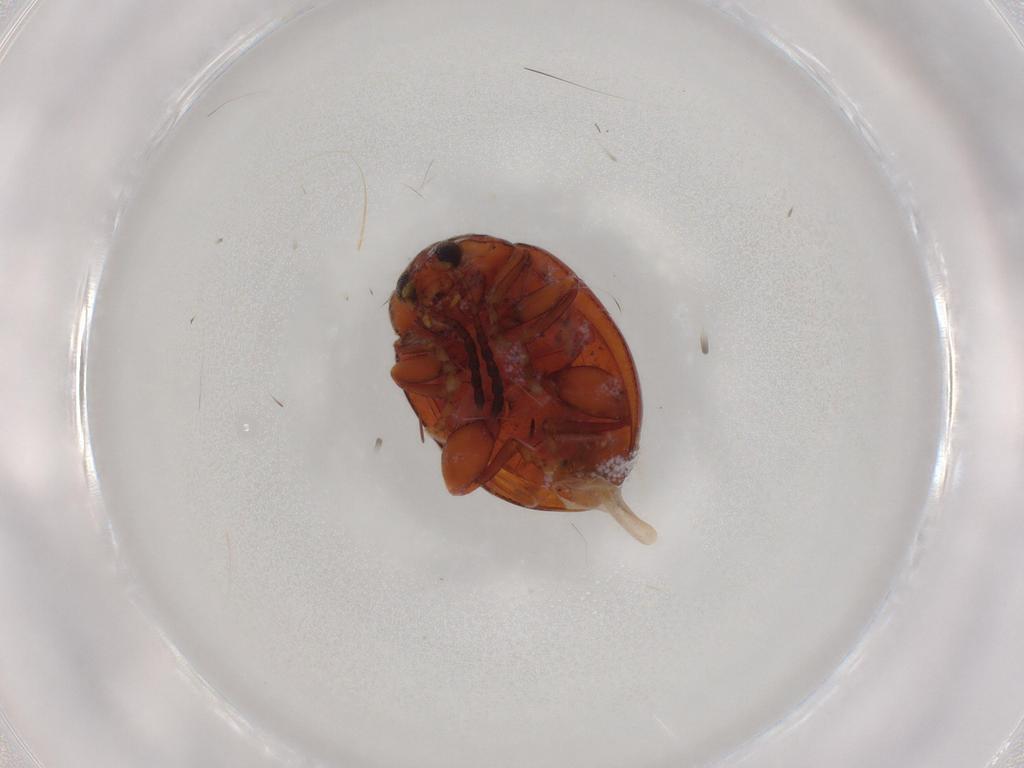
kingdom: Animalia
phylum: Arthropoda
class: Insecta
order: Coleoptera
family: Chrysomelidae
